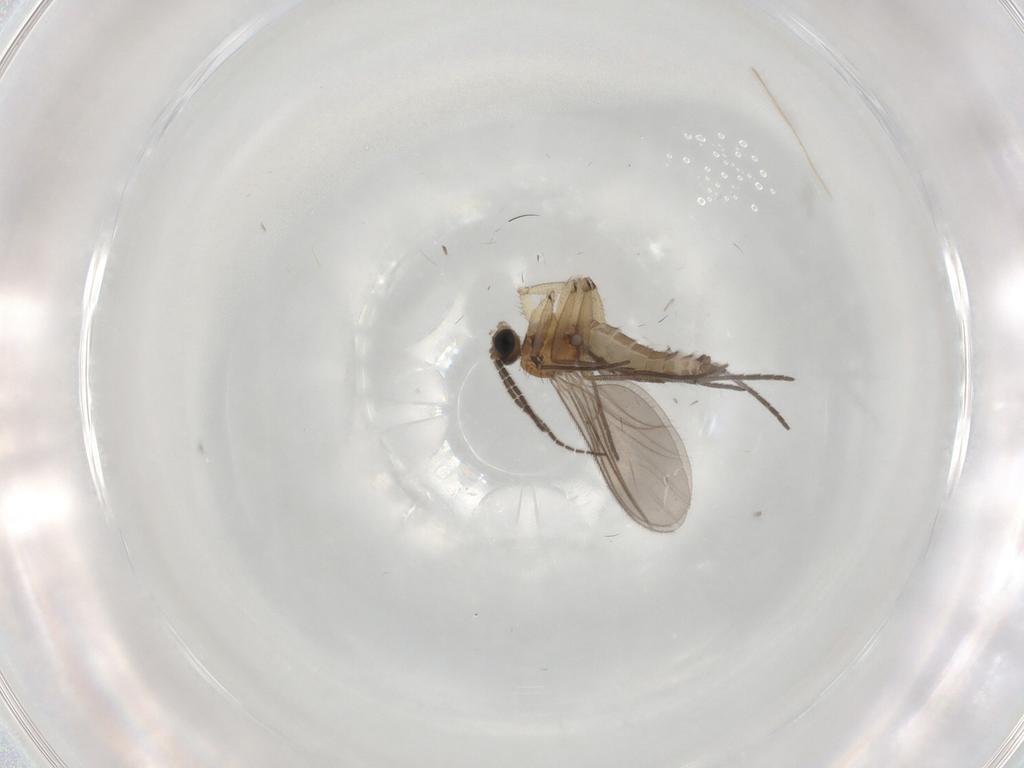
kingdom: Animalia
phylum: Arthropoda
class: Insecta
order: Diptera
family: Sciaridae
